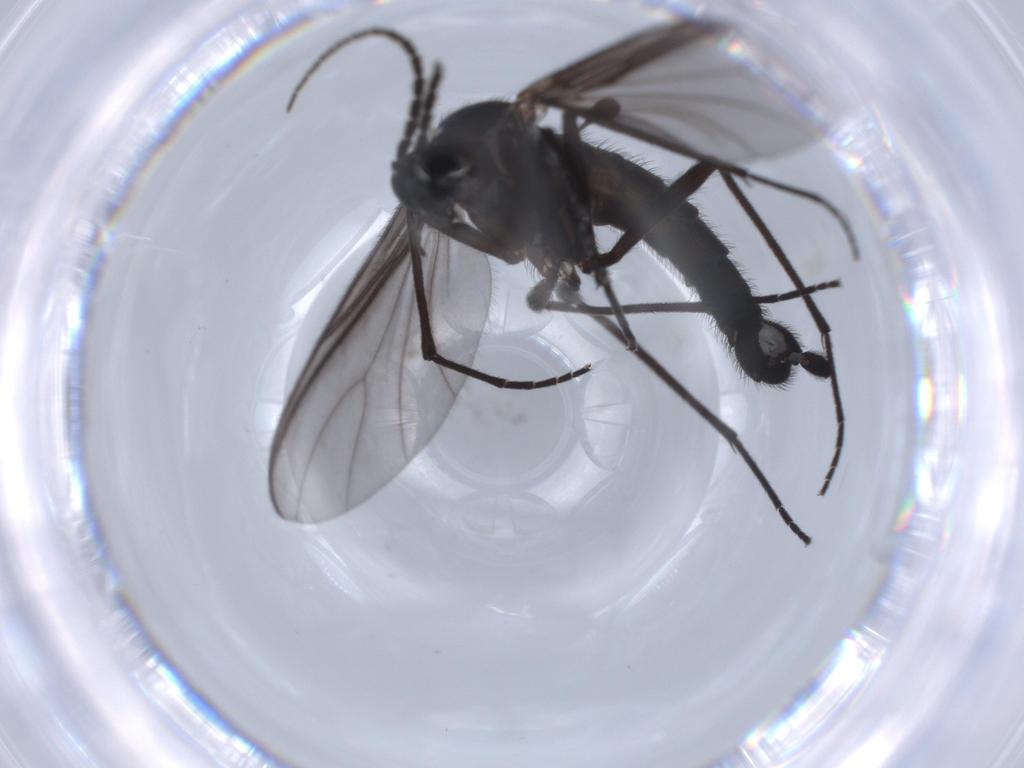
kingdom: Animalia
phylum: Arthropoda
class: Insecta
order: Diptera
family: Cecidomyiidae
